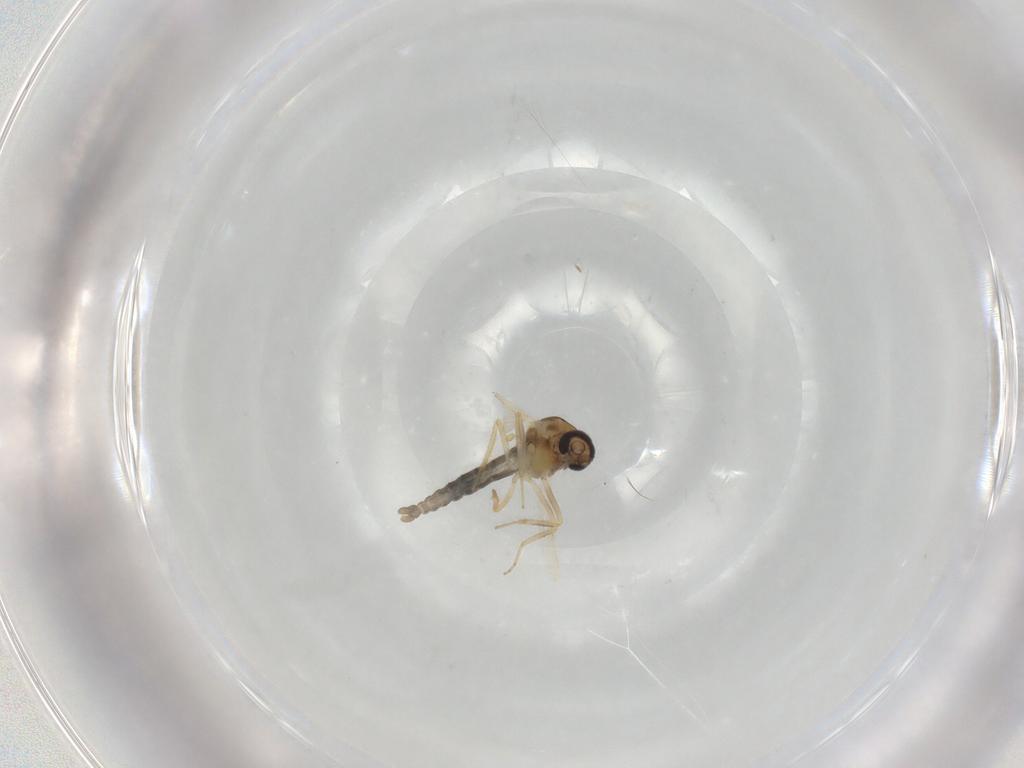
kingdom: Animalia
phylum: Arthropoda
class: Insecta
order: Diptera
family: Ceratopogonidae
